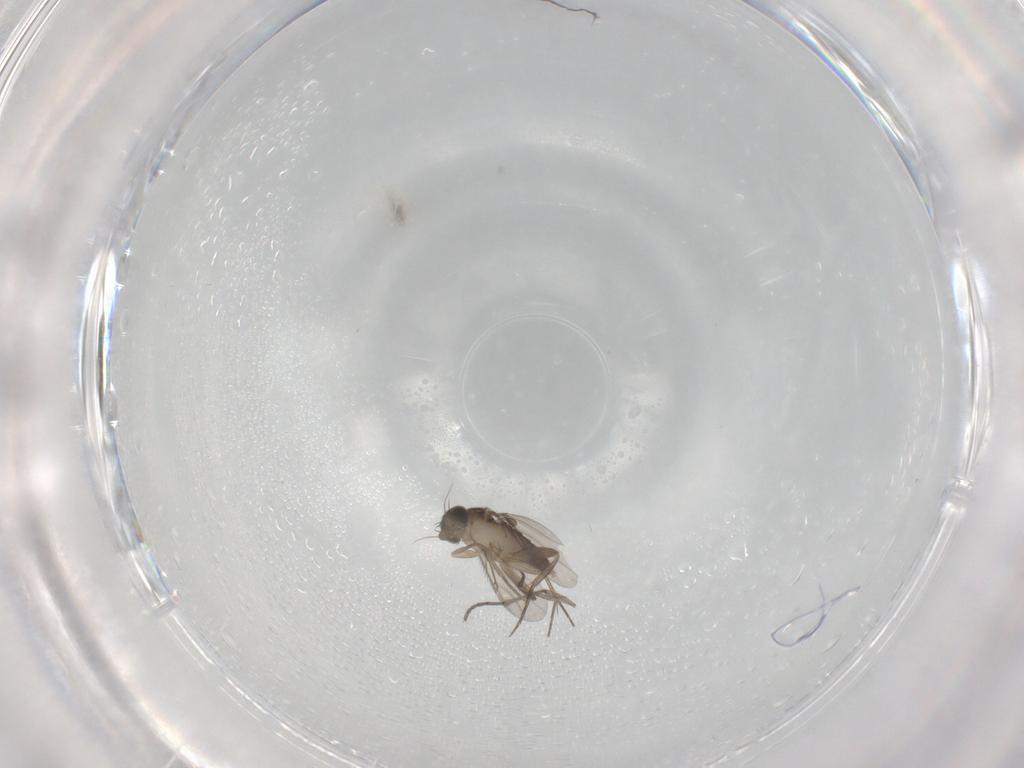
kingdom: Animalia
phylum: Arthropoda
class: Insecta
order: Diptera
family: Phoridae
